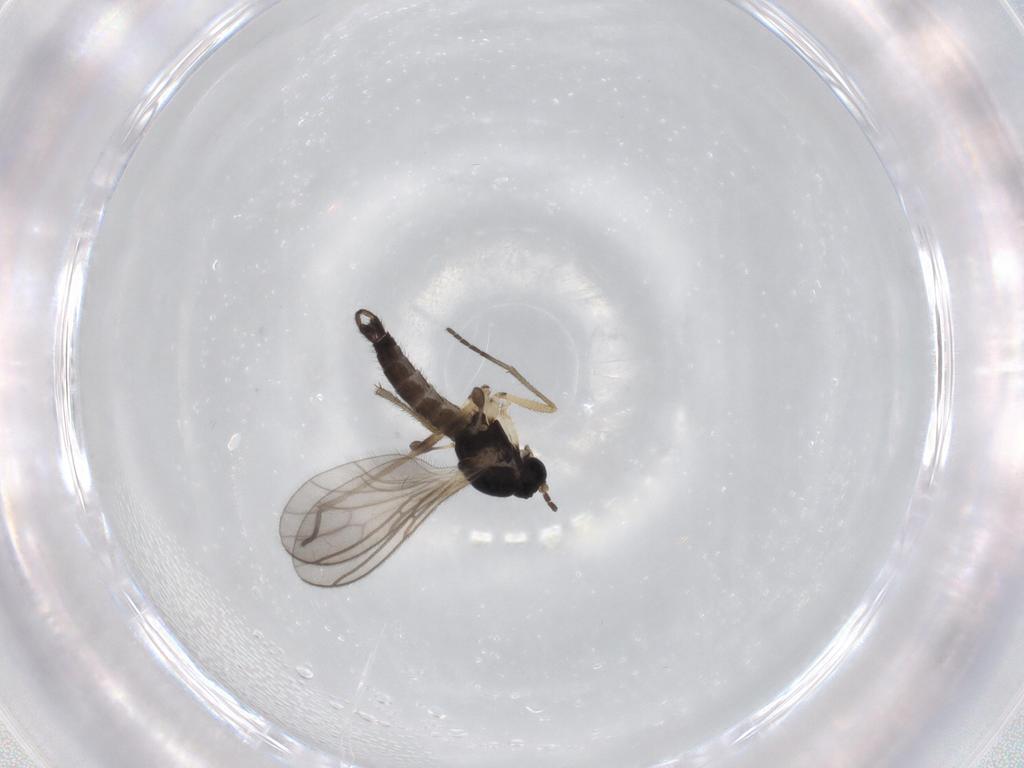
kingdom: Animalia
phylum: Arthropoda
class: Insecta
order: Diptera
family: Sciaridae
